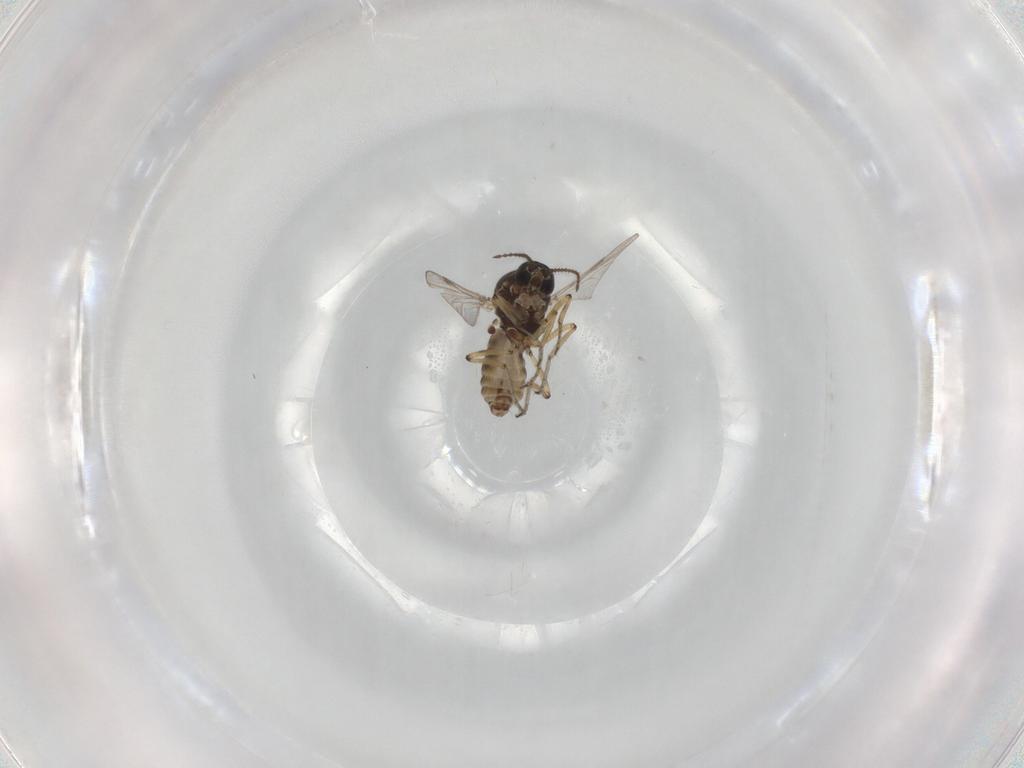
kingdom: Animalia
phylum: Arthropoda
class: Insecta
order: Diptera
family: Ceratopogonidae
